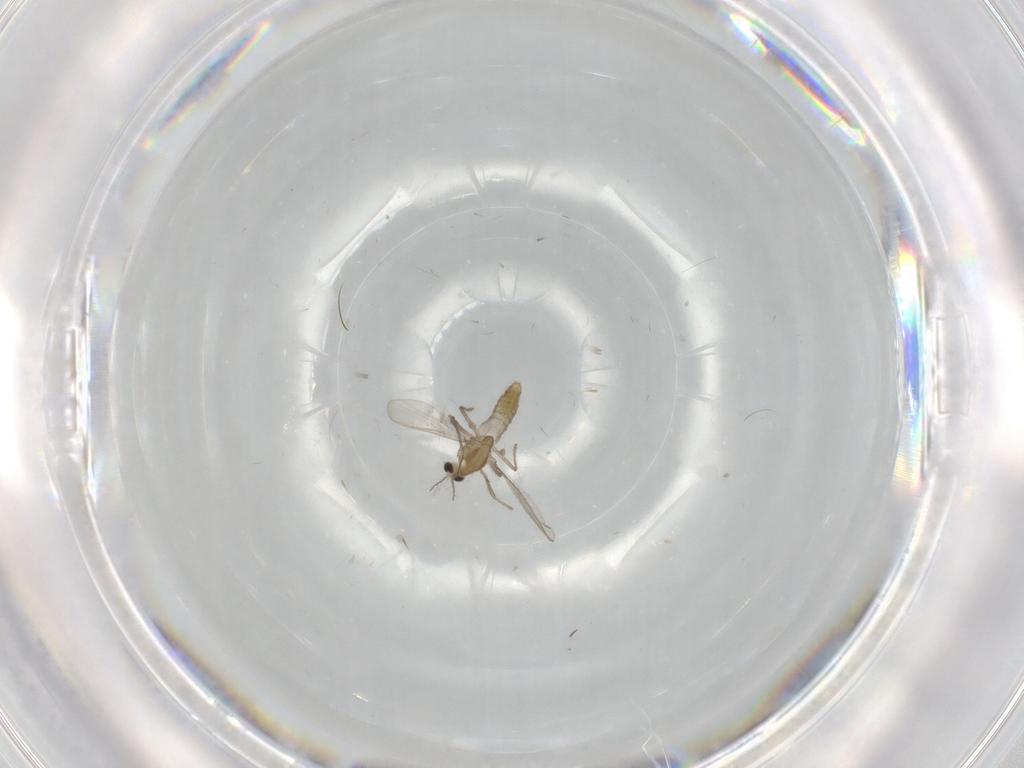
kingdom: Animalia
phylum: Arthropoda
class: Insecta
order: Diptera
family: Chironomidae
